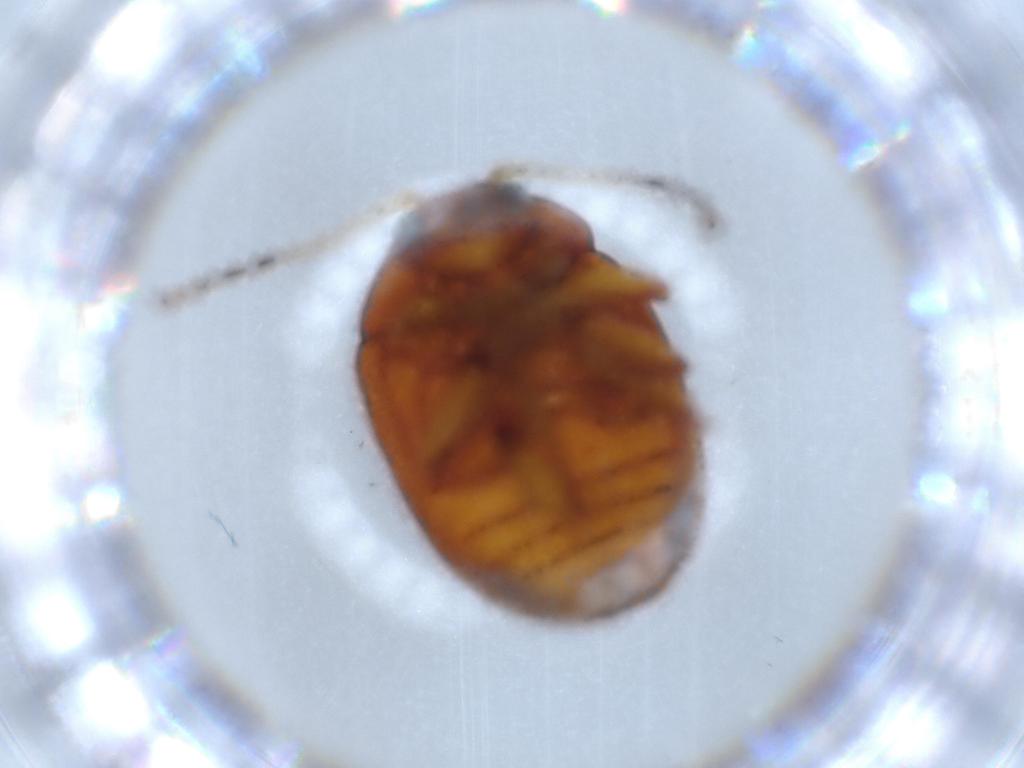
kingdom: Animalia
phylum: Arthropoda
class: Insecta
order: Coleoptera
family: Chrysomelidae
